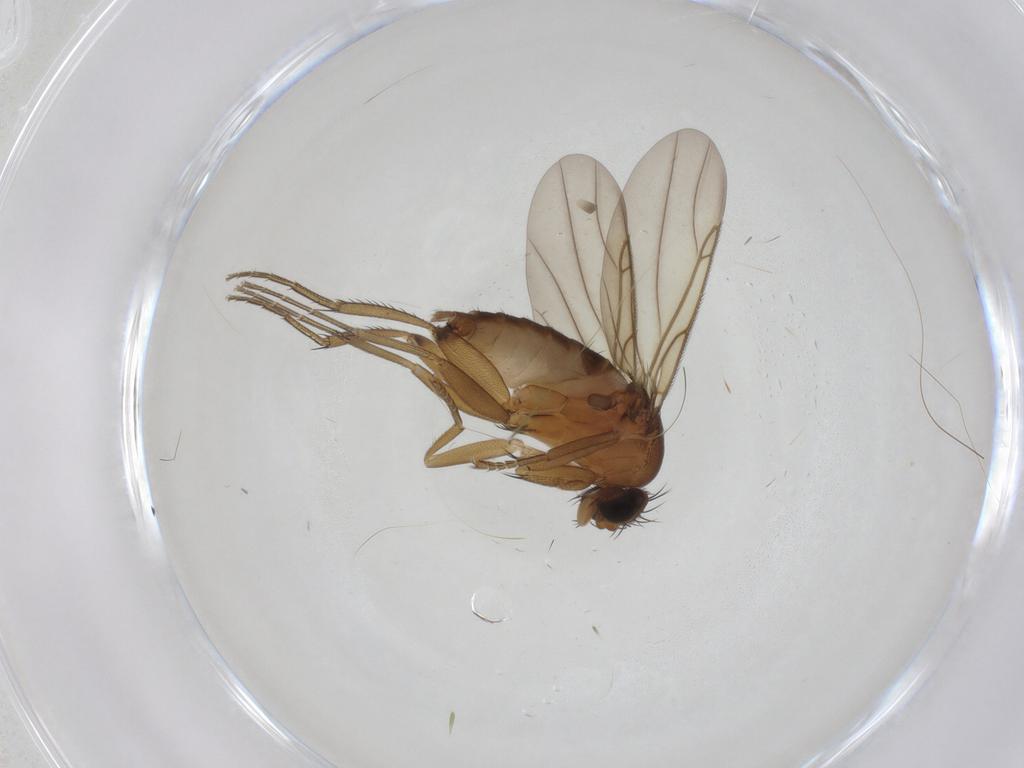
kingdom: Animalia
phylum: Arthropoda
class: Insecta
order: Diptera
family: Phoridae
